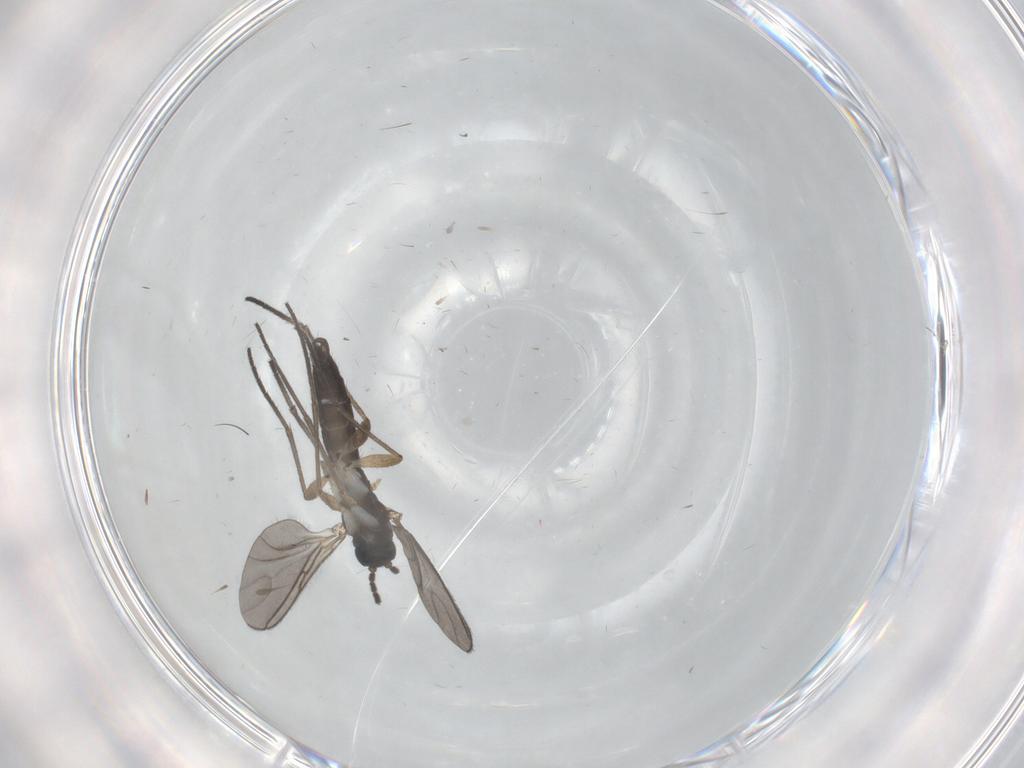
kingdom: Animalia
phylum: Arthropoda
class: Insecta
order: Diptera
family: Sciaridae
